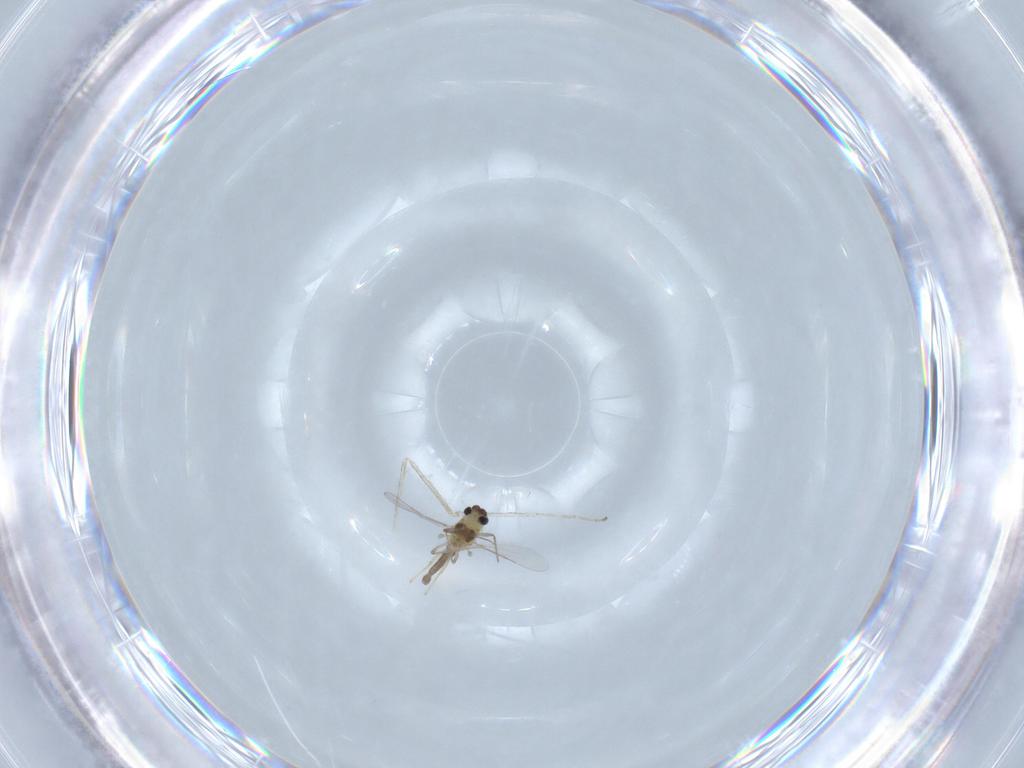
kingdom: Animalia
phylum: Arthropoda
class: Insecta
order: Diptera
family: Chironomidae
